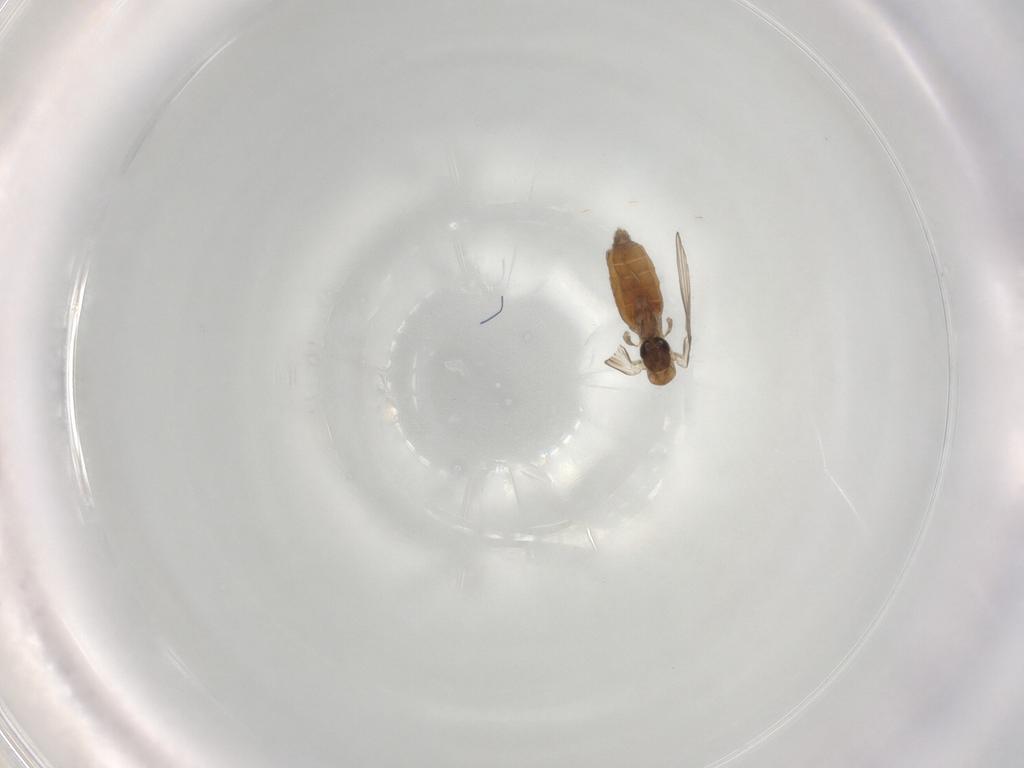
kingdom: Animalia
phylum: Arthropoda
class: Insecta
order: Diptera
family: Psychodidae
